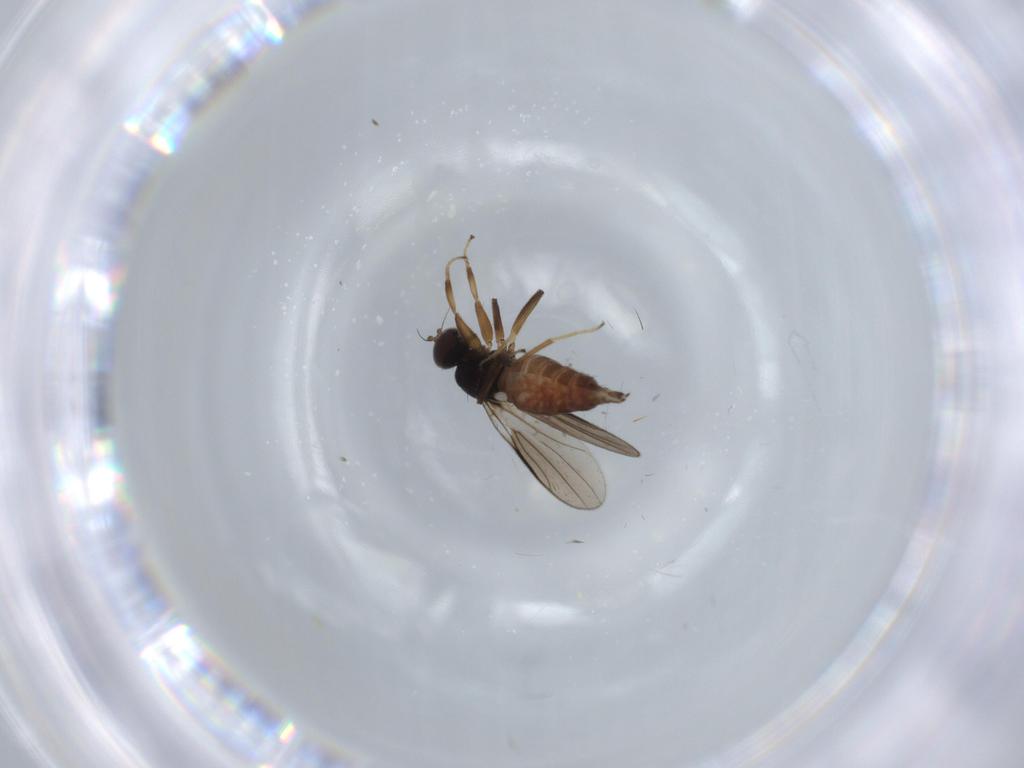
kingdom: Animalia
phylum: Arthropoda
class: Insecta
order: Diptera
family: Hybotidae
